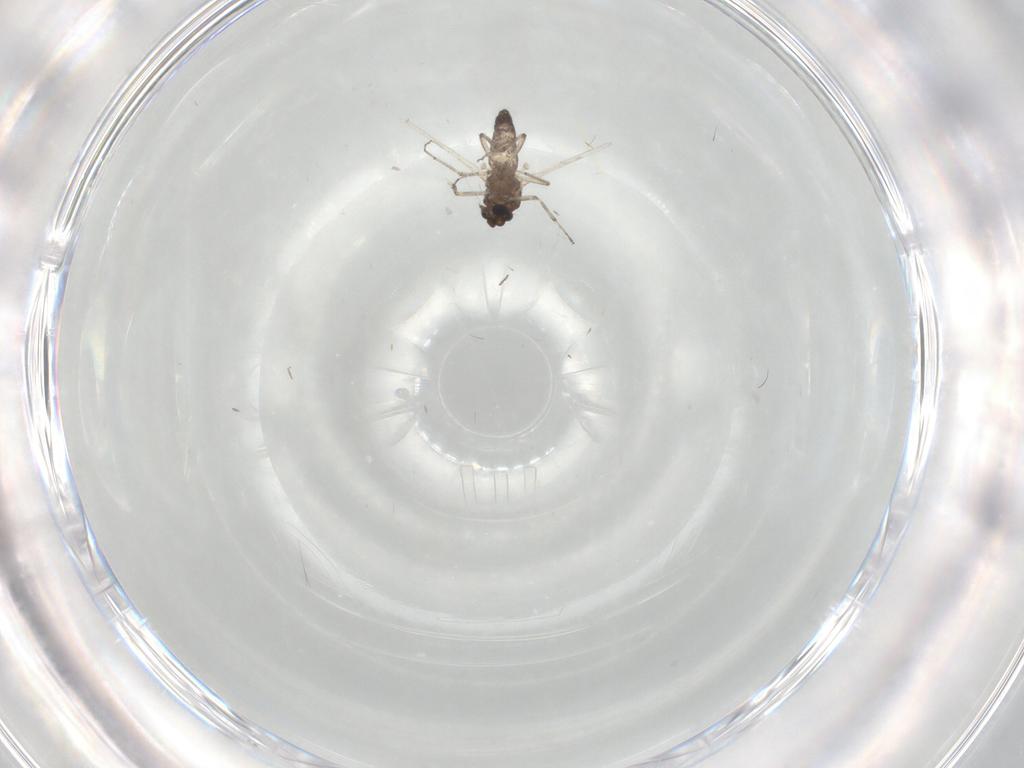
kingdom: Animalia
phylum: Arthropoda
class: Insecta
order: Diptera
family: Ceratopogonidae
